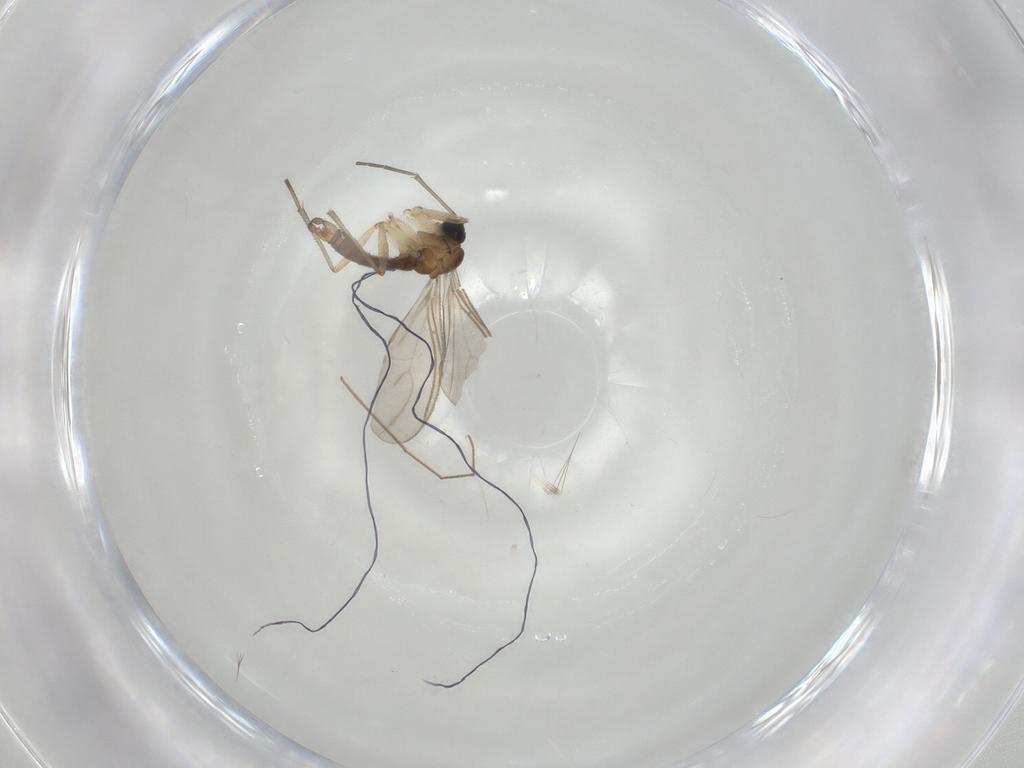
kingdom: Animalia
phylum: Arthropoda
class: Insecta
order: Diptera
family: Sciaridae
